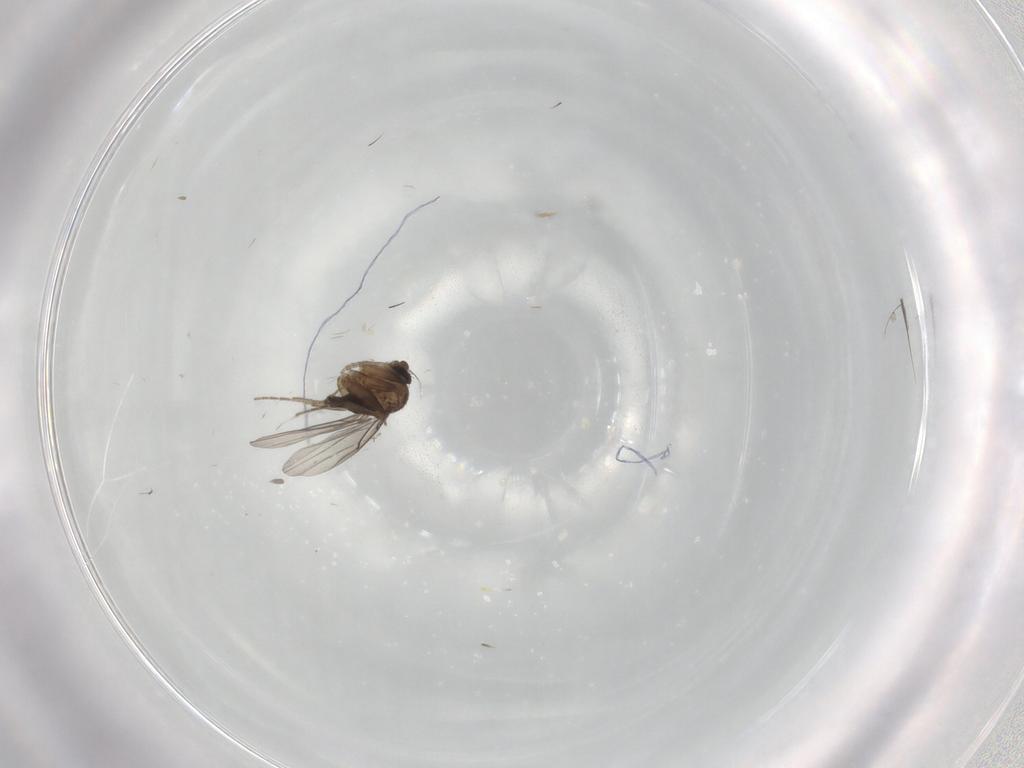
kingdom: Animalia
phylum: Arthropoda
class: Insecta
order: Diptera
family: Phoridae
